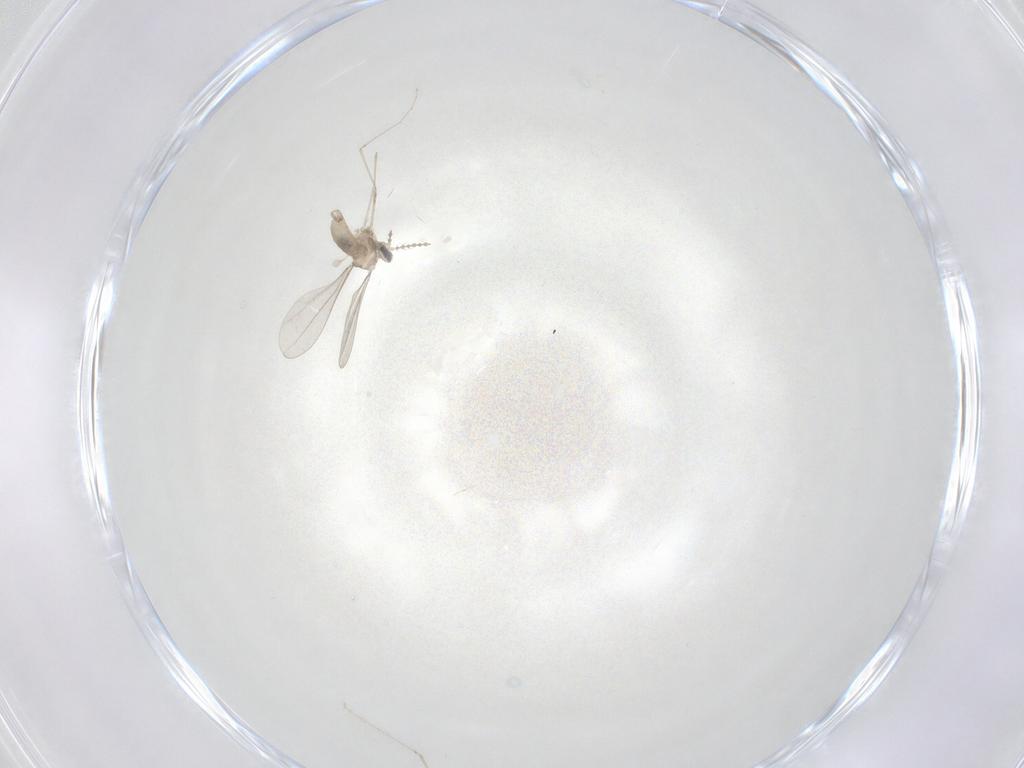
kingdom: Animalia
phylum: Arthropoda
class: Insecta
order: Diptera
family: Cecidomyiidae
